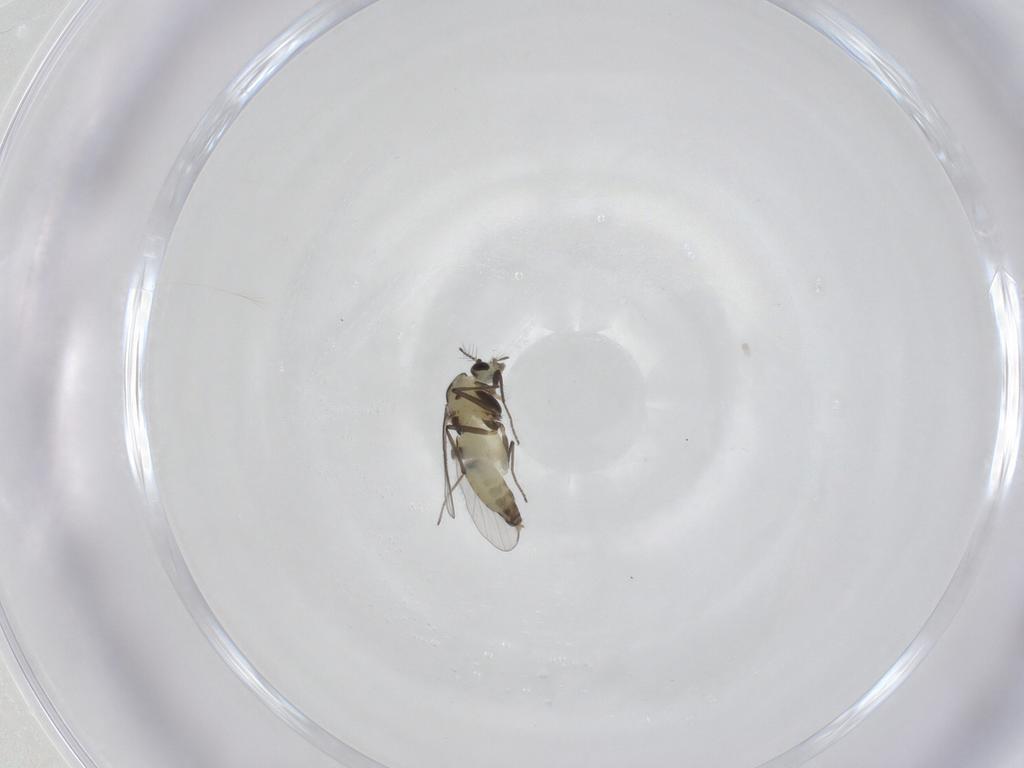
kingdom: Animalia
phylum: Arthropoda
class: Insecta
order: Diptera
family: Chironomidae
